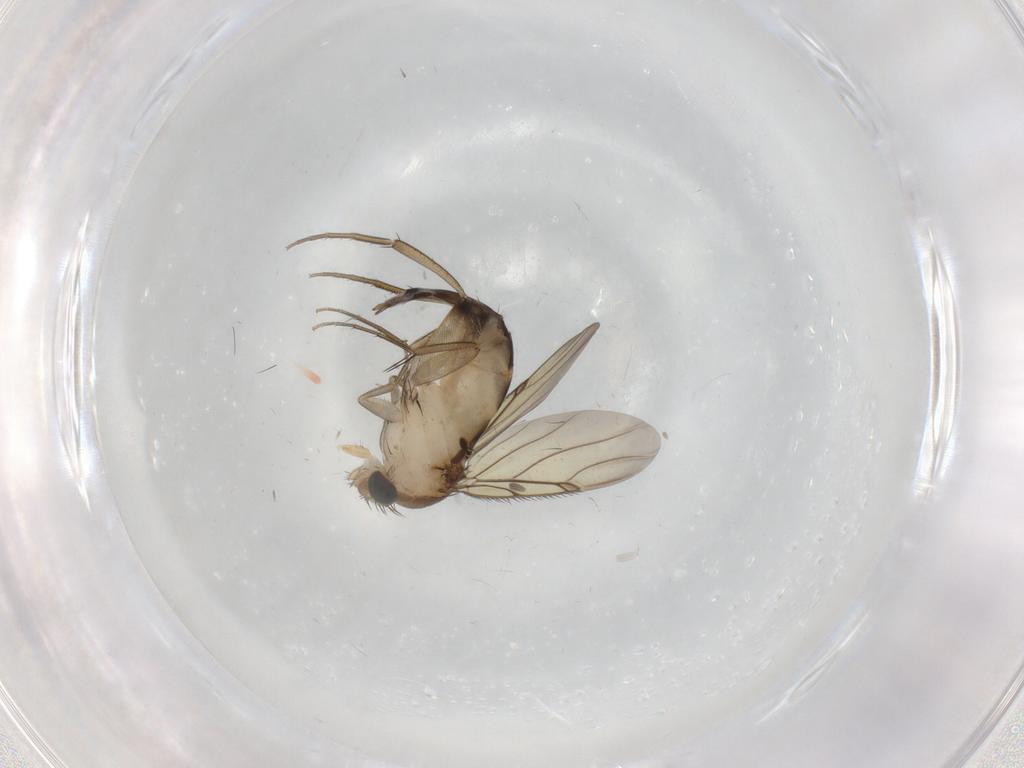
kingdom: Animalia
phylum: Arthropoda
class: Insecta
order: Diptera
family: Phoridae
